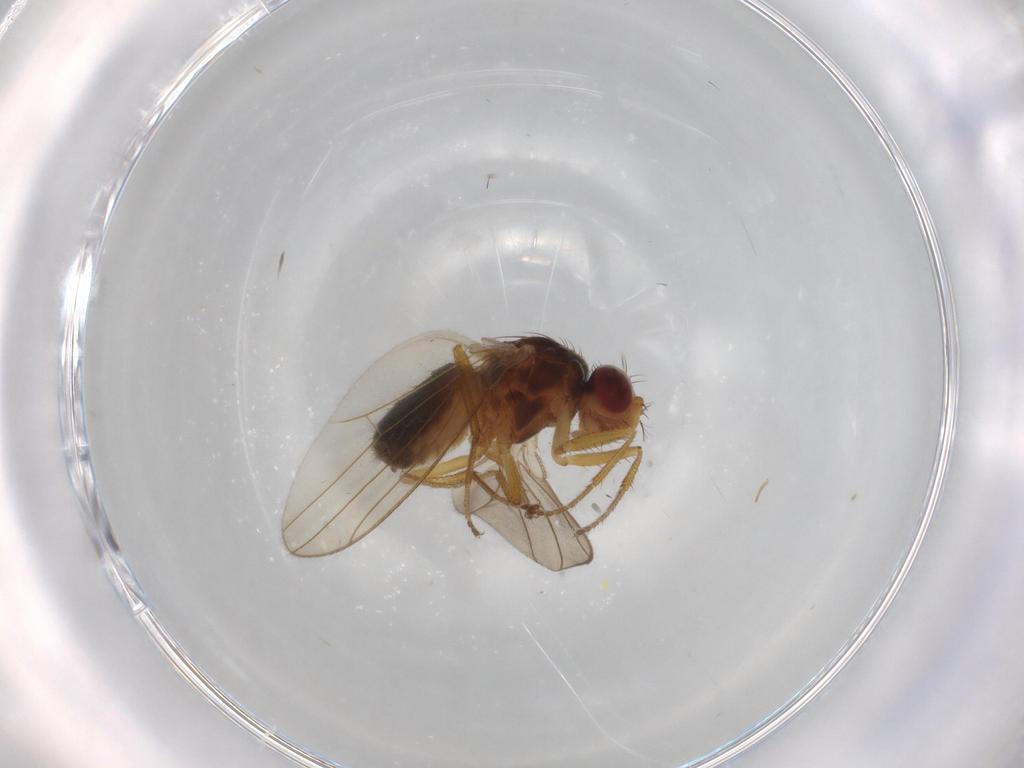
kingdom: Animalia
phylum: Arthropoda
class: Insecta
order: Diptera
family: Drosophilidae
